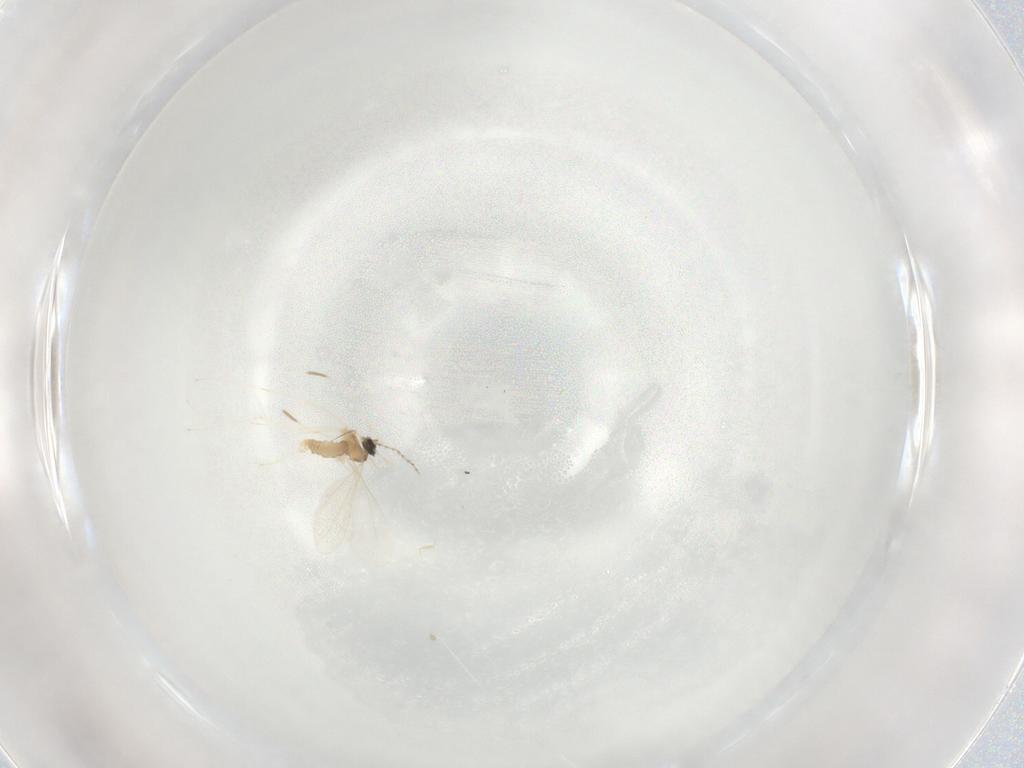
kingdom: Animalia
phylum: Arthropoda
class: Insecta
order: Diptera
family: Cecidomyiidae
